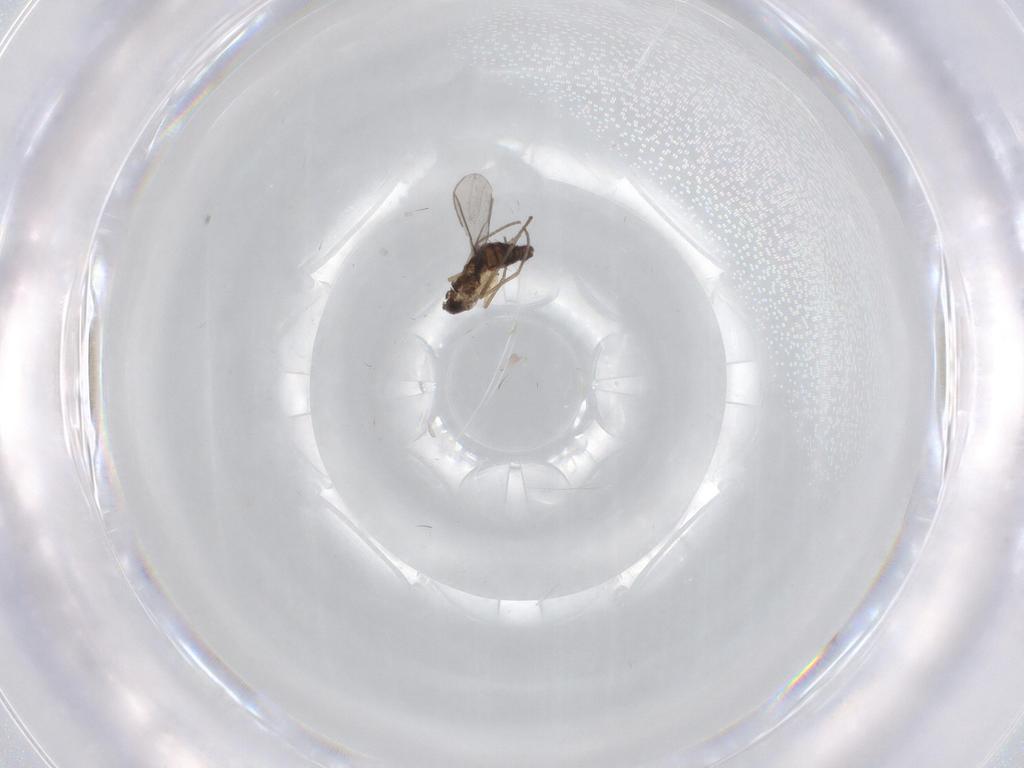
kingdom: Animalia
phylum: Arthropoda
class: Insecta
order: Diptera
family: Sciaridae
